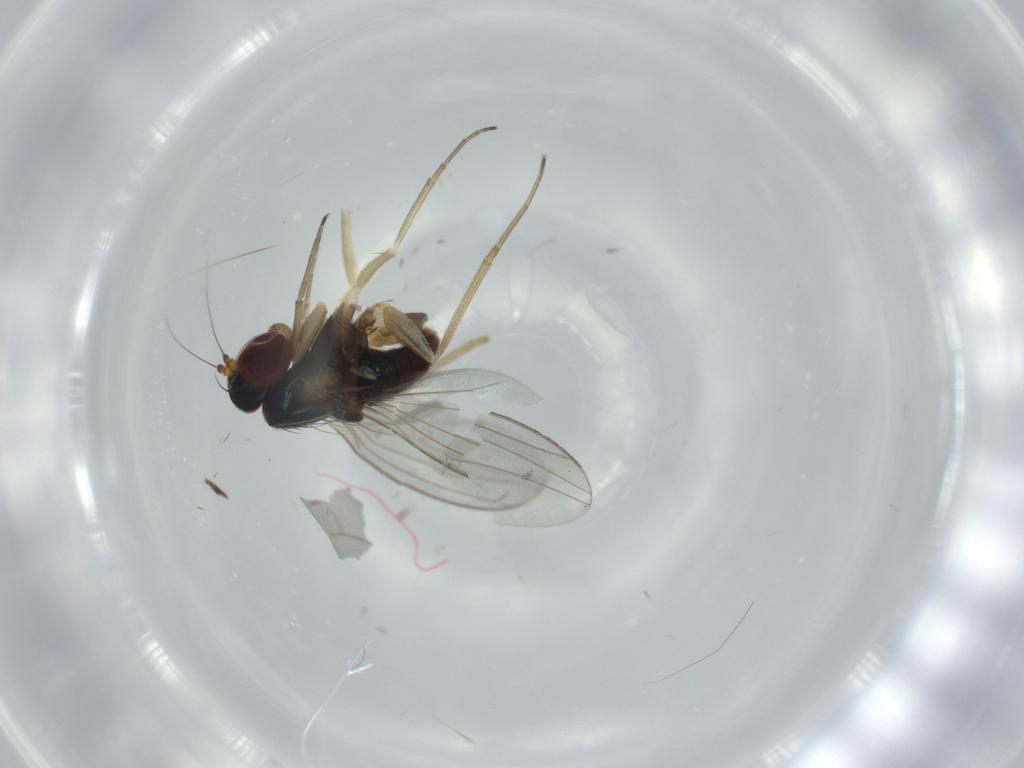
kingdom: Animalia
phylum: Arthropoda
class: Insecta
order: Diptera
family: Dolichopodidae
